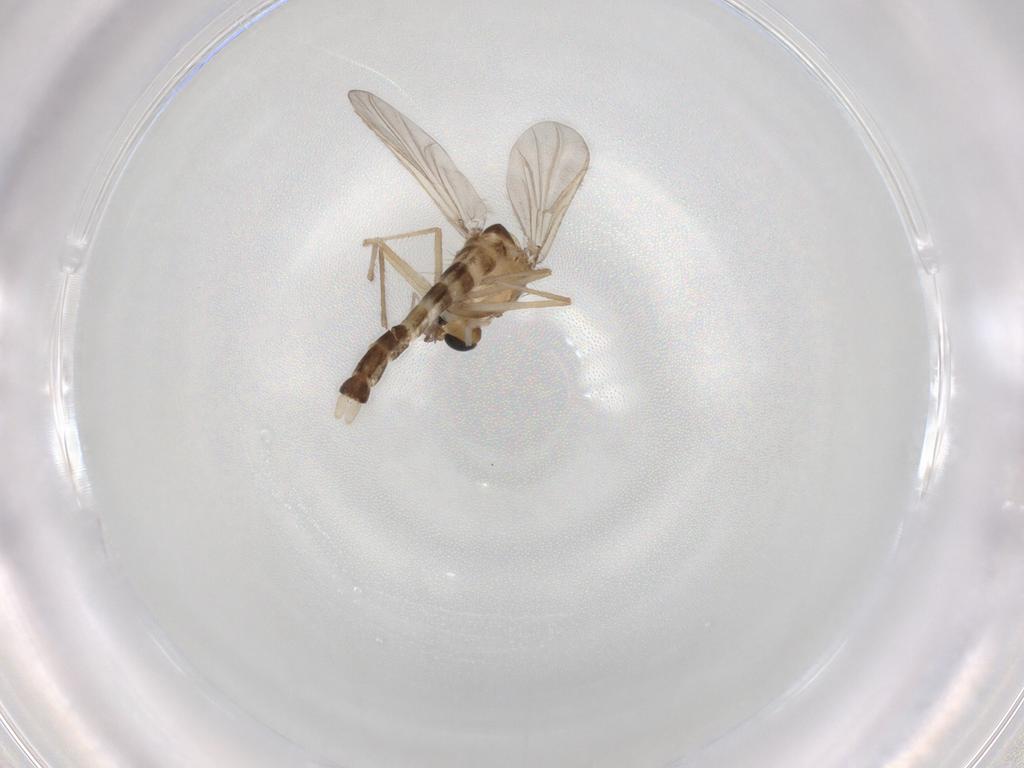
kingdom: Animalia
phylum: Arthropoda
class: Insecta
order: Diptera
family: Chironomidae
